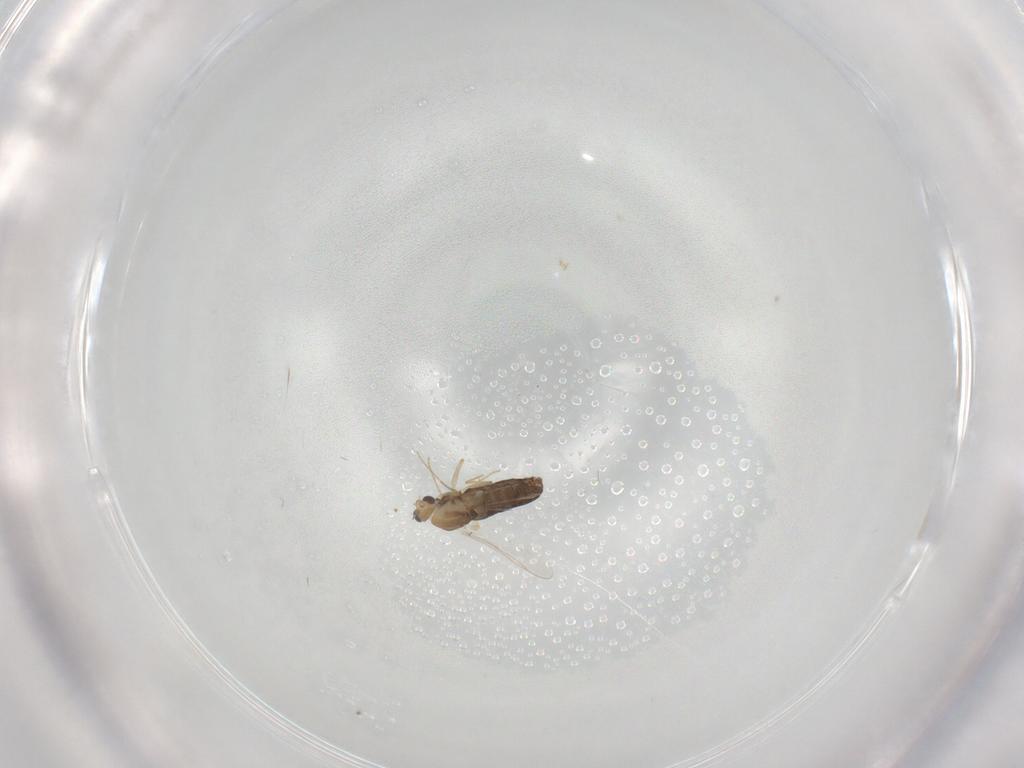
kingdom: Animalia
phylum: Arthropoda
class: Insecta
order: Diptera
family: Chironomidae
